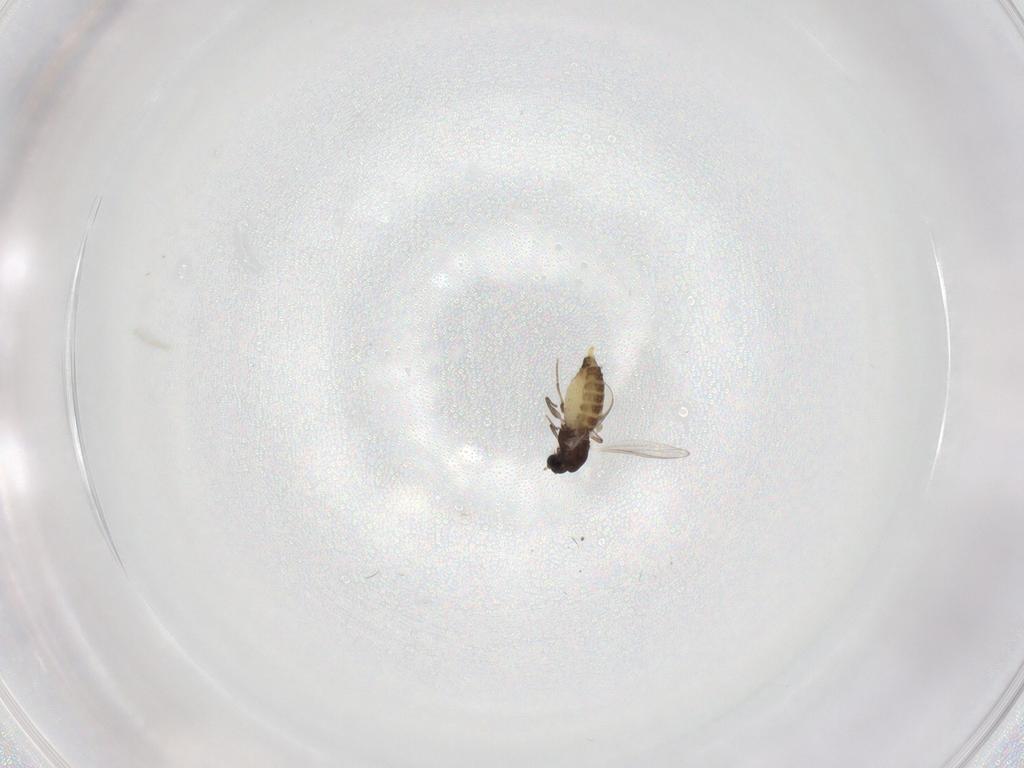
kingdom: Animalia
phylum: Arthropoda
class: Insecta
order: Diptera
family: Chironomidae
